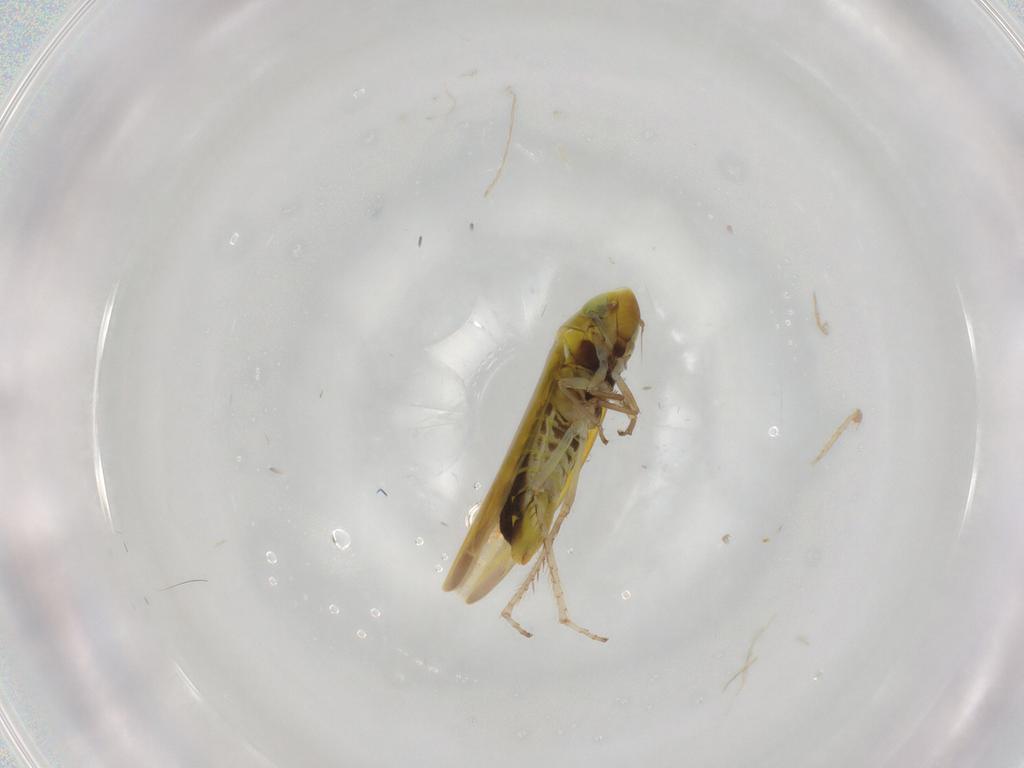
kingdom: Animalia
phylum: Arthropoda
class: Insecta
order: Hemiptera
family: Cicadellidae
